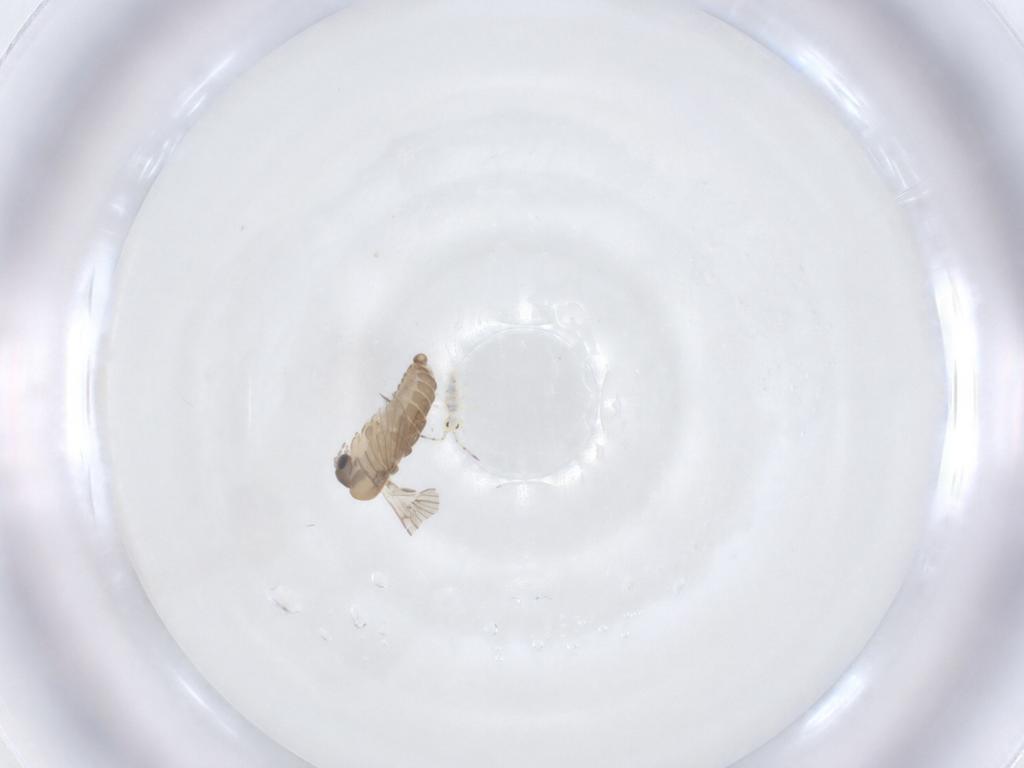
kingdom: Animalia
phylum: Arthropoda
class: Insecta
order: Diptera
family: Psychodidae
